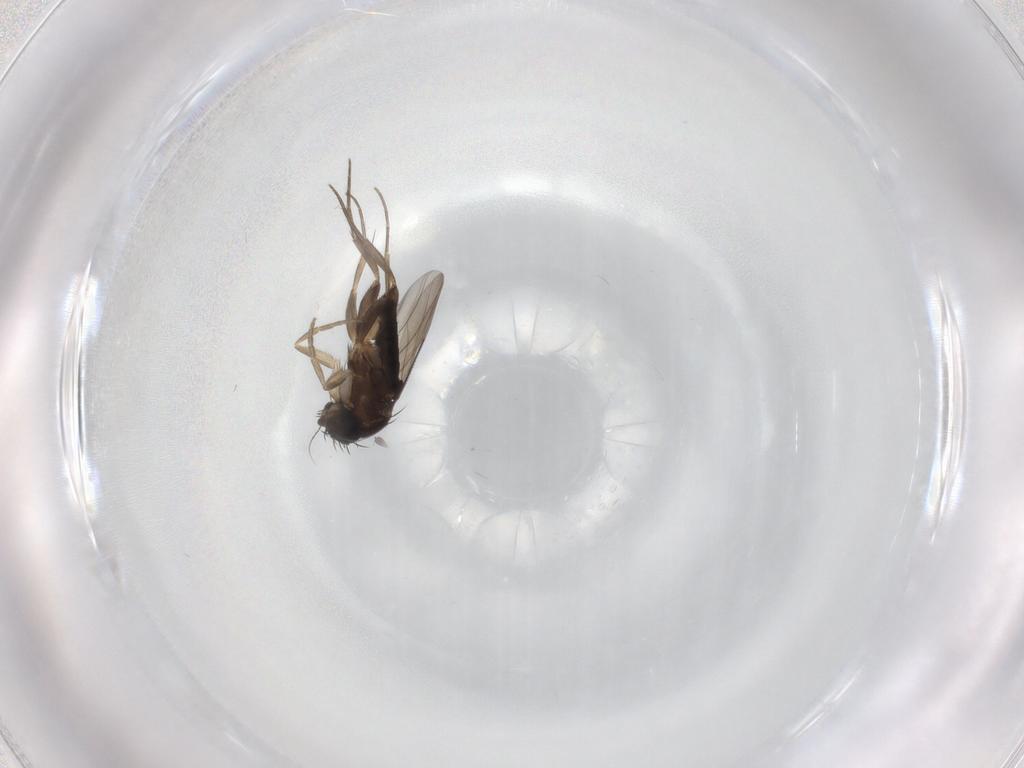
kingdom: Animalia
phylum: Arthropoda
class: Insecta
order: Diptera
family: Phoridae
